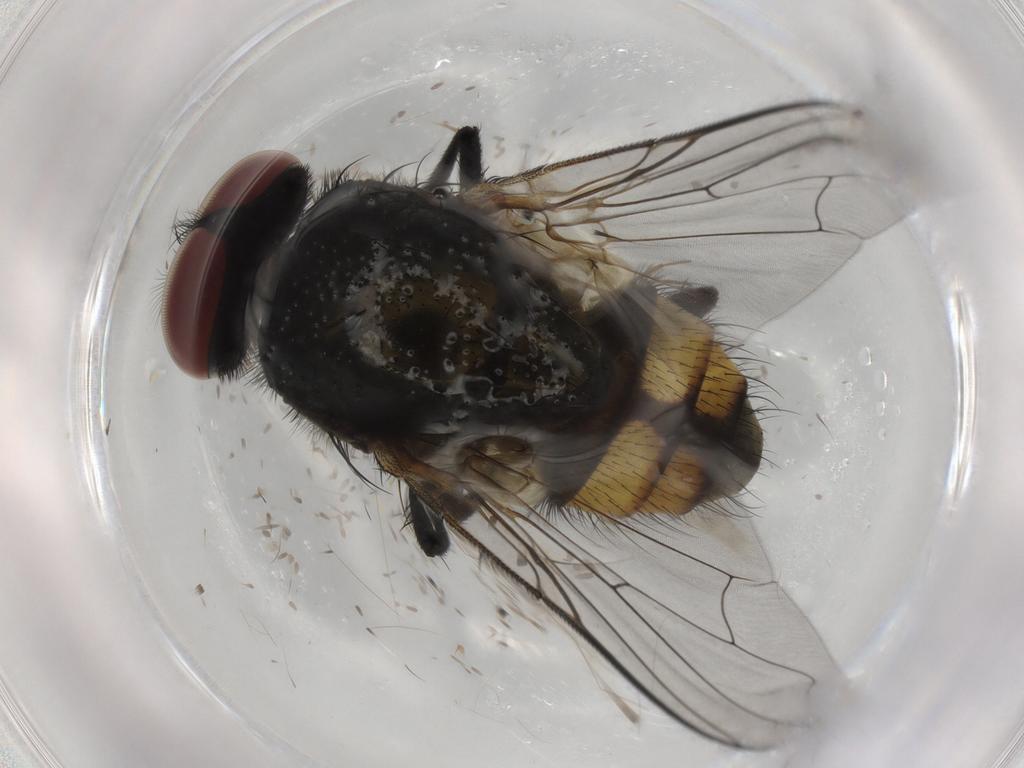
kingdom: Animalia
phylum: Arthropoda
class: Insecta
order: Diptera
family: Muscidae
